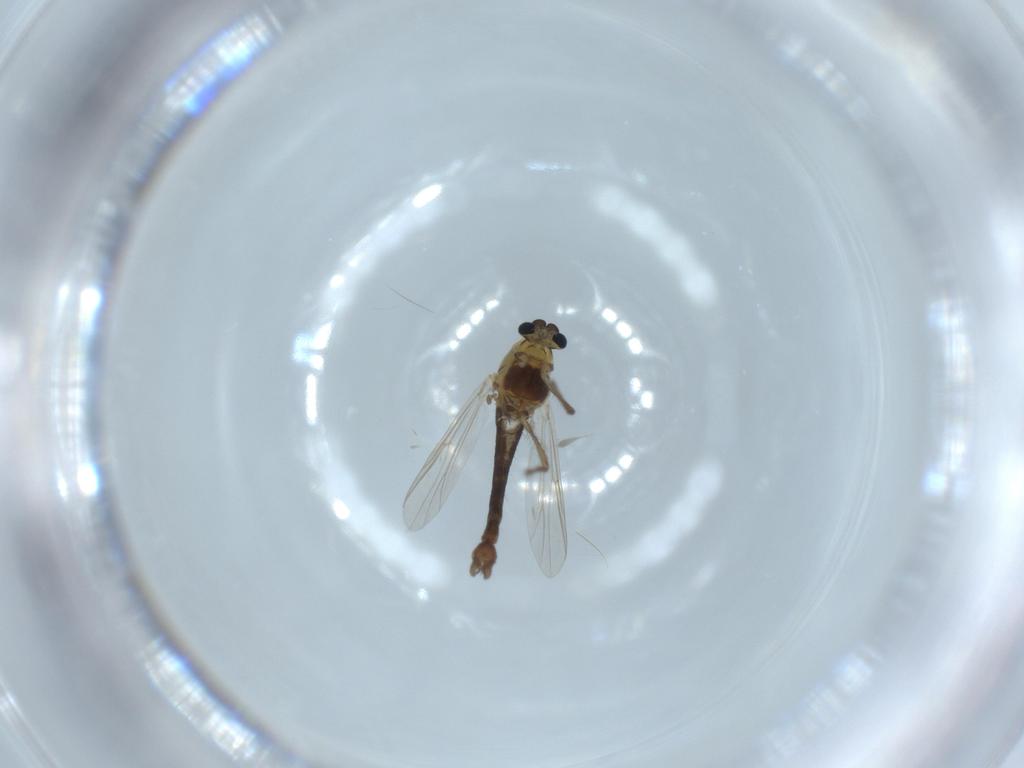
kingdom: Animalia
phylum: Arthropoda
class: Insecta
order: Diptera
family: Chironomidae
